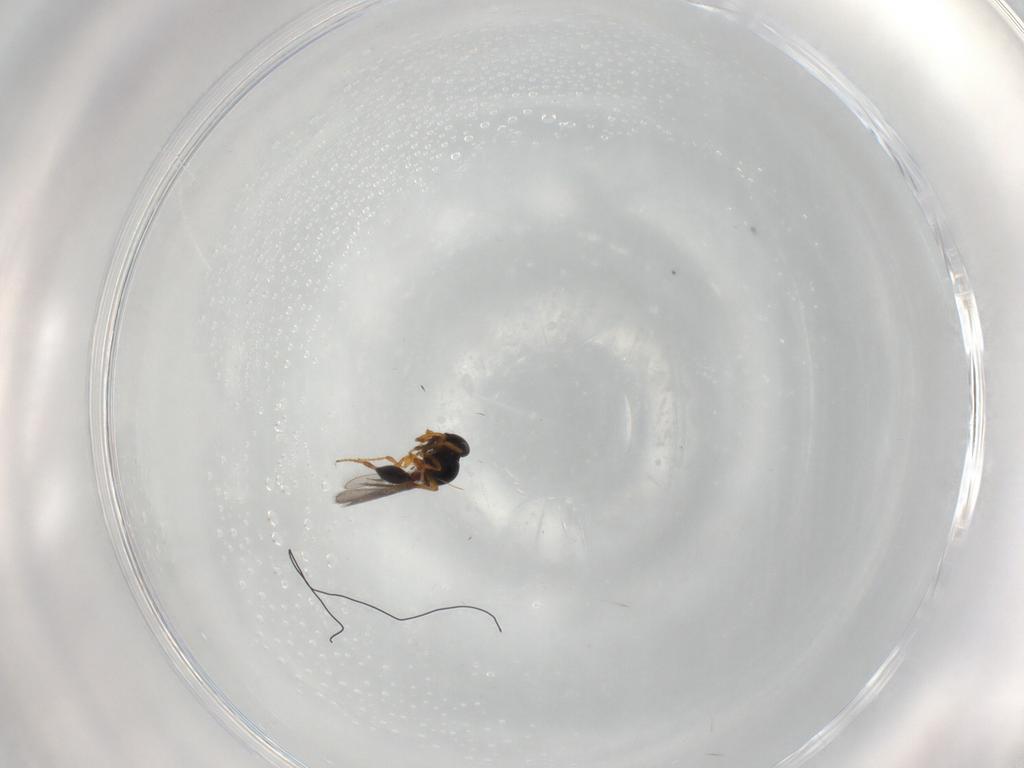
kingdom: Animalia
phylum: Arthropoda
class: Insecta
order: Hymenoptera
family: Platygastridae
